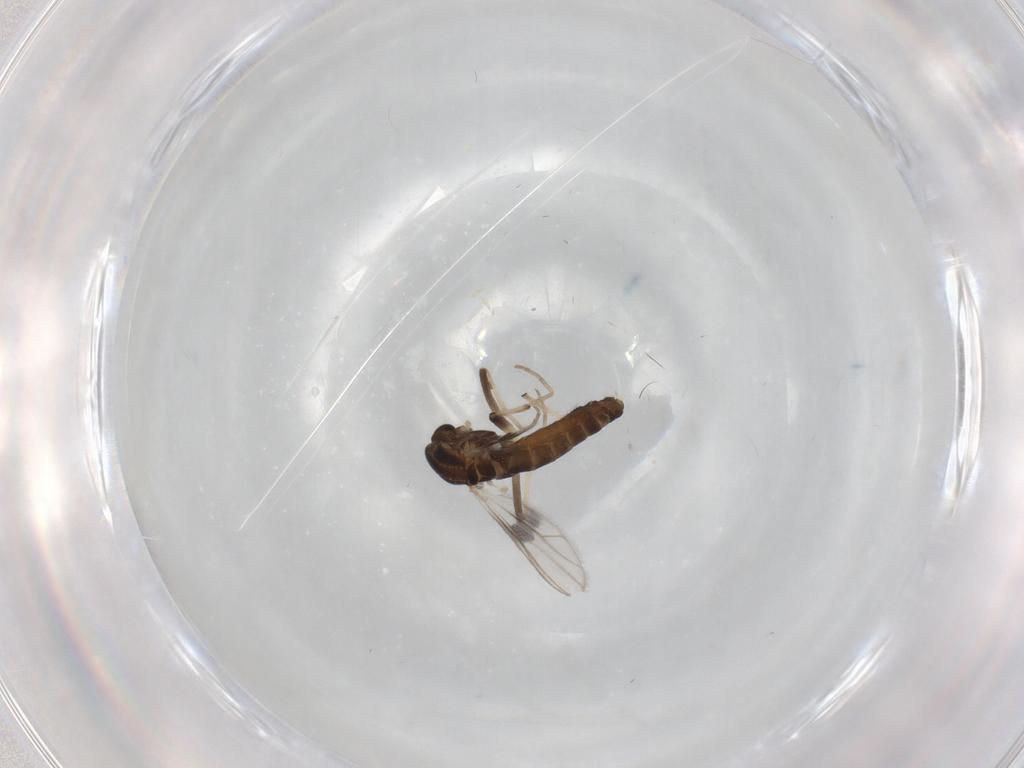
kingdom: Animalia
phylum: Arthropoda
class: Insecta
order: Diptera
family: Chironomidae
